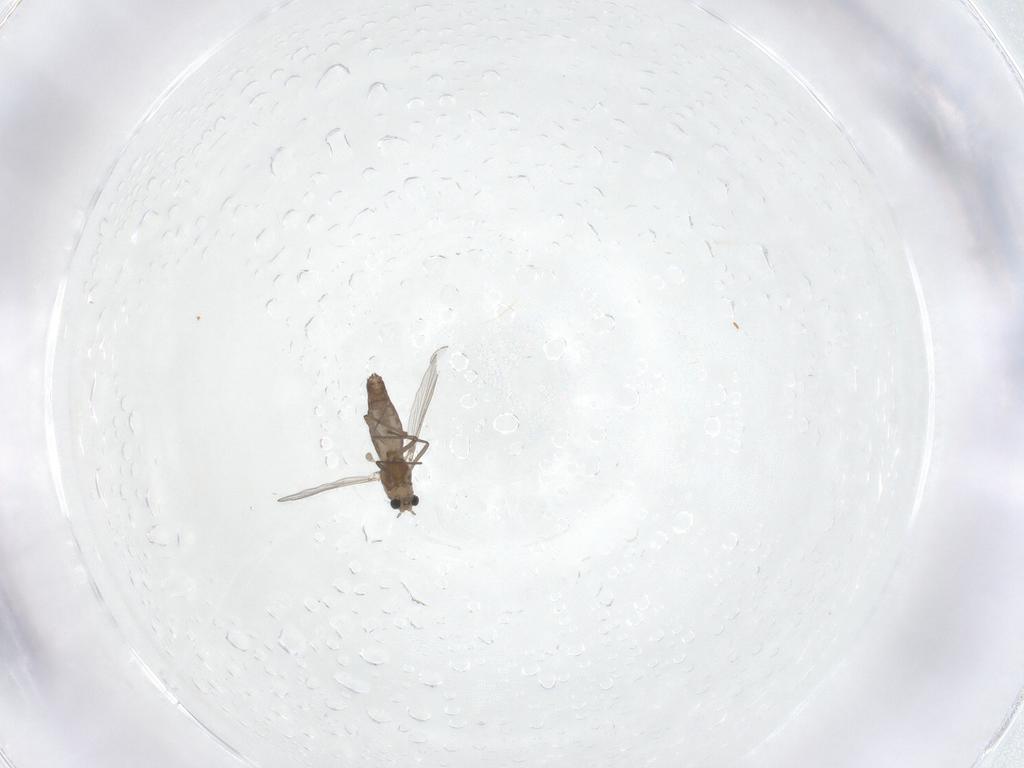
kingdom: Animalia
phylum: Arthropoda
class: Insecta
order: Diptera
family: Chironomidae
